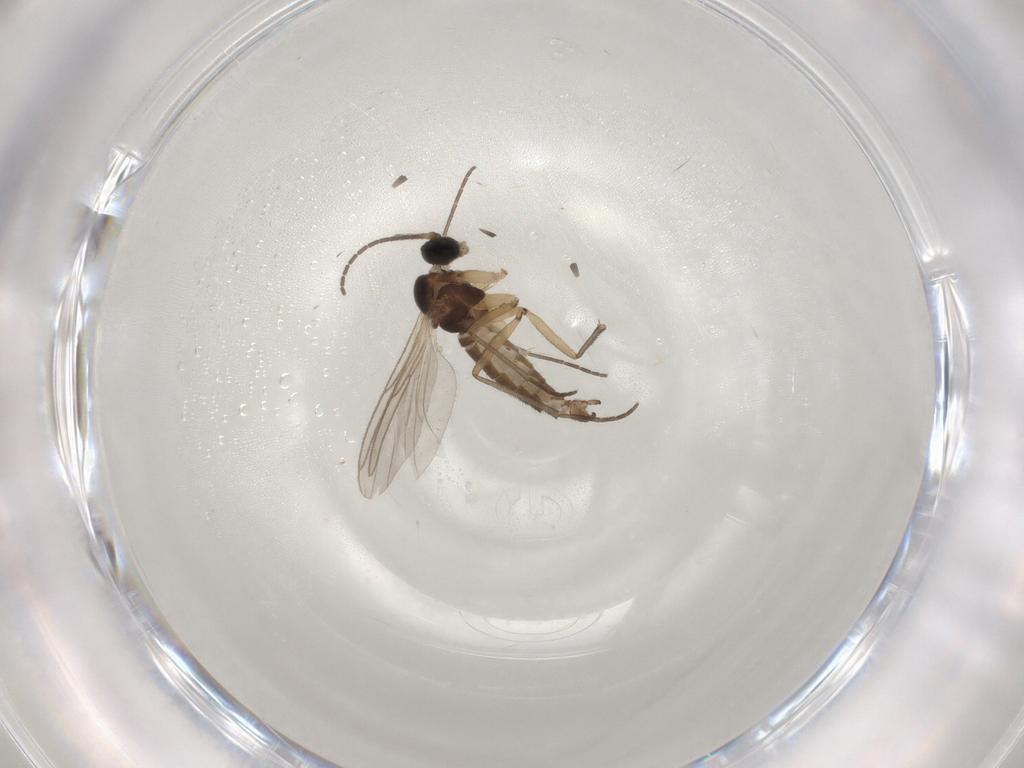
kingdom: Animalia
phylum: Arthropoda
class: Insecta
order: Diptera
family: Sciaridae
